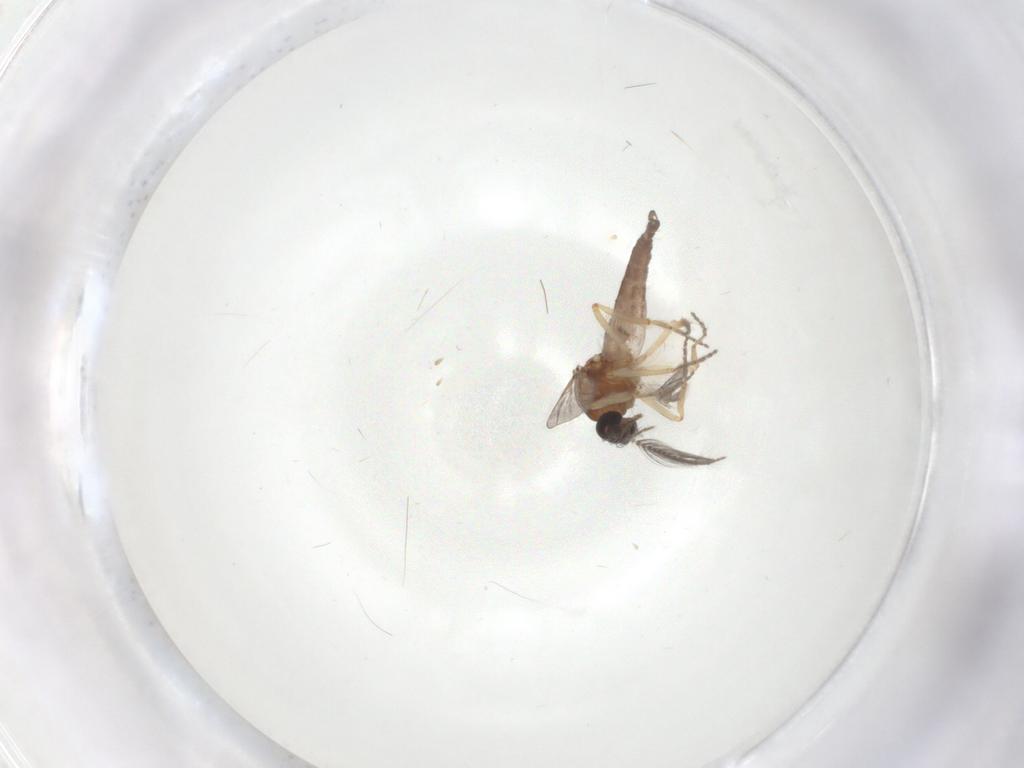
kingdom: Animalia
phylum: Arthropoda
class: Insecta
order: Diptera
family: Ceratopogonidae
